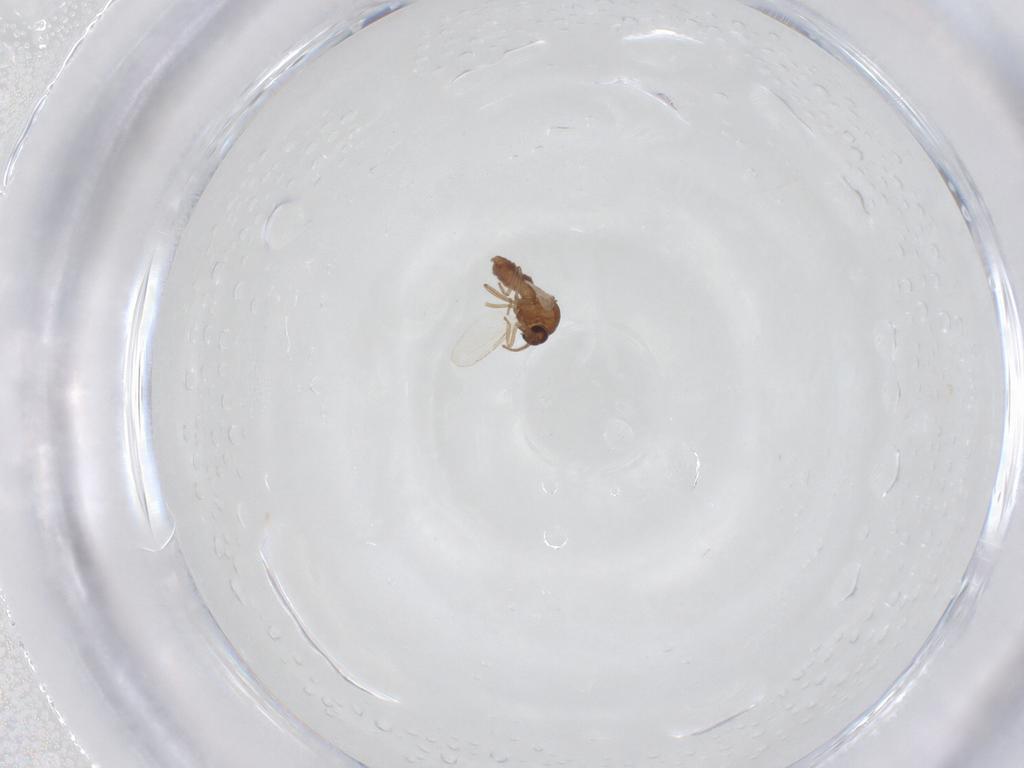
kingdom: Animalia
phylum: Arthropoda
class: Insecta
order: Diptera
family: Ceratopogonidae
